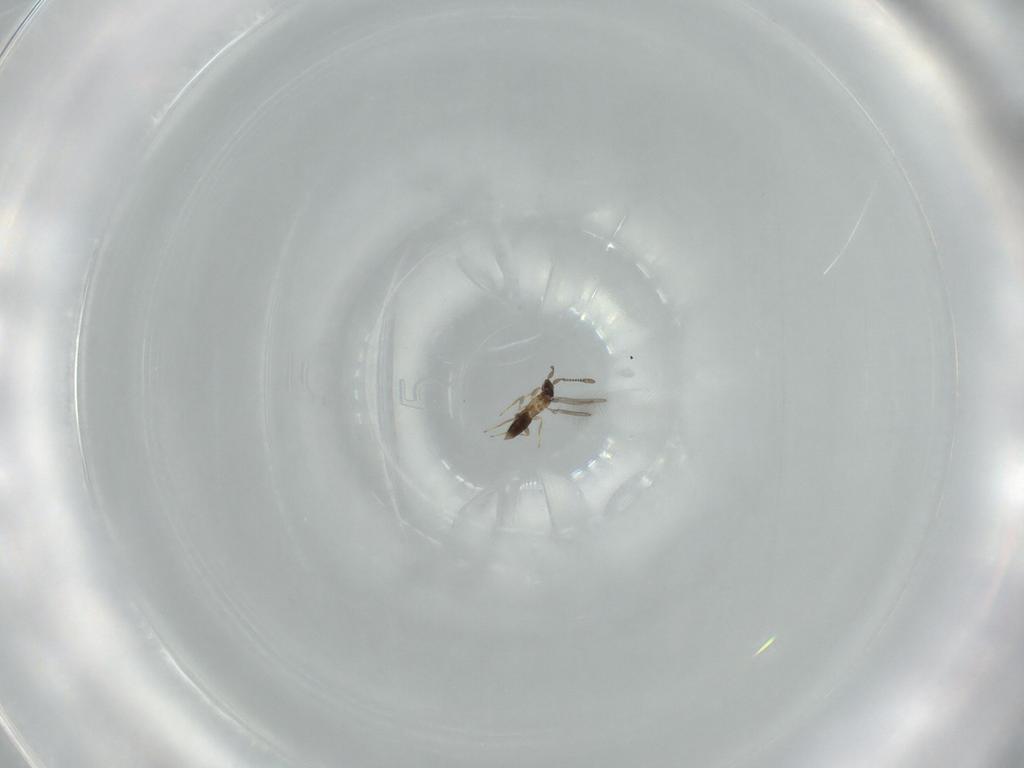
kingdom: Animalia
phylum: Arthropoda
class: Insecta
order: Hymenoptera
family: Mymaridae
